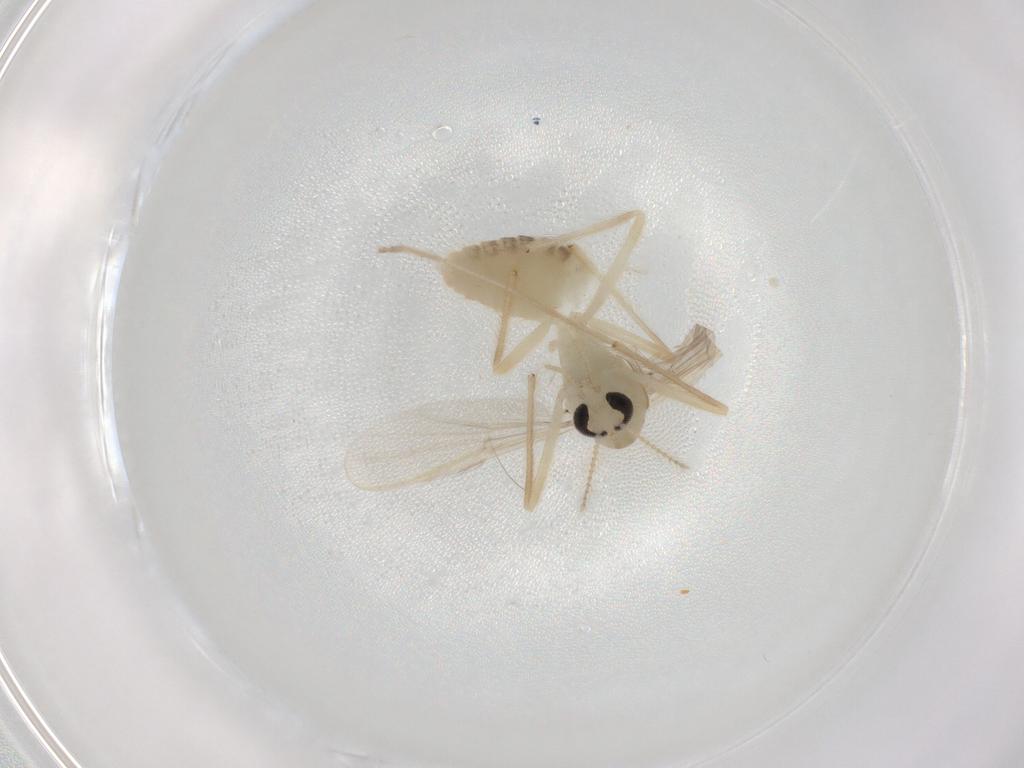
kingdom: Animalia
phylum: Arthropoda
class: Insecta
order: Diptera
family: Chironomidae
